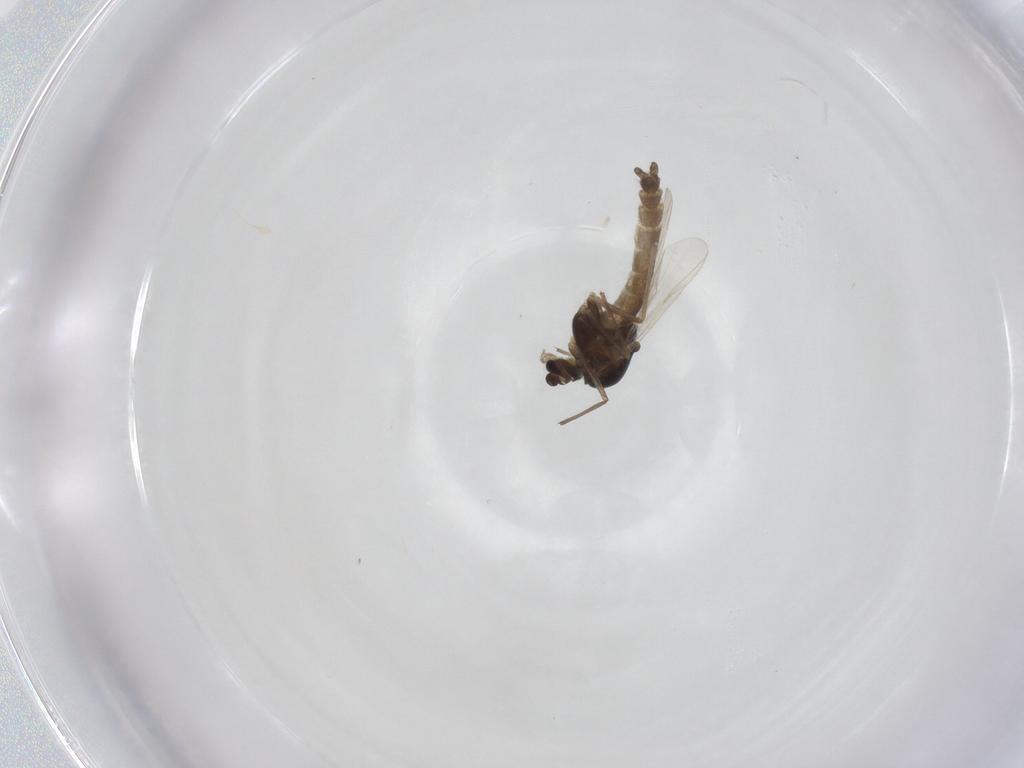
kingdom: Animalia
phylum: Arthropoda
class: Insecta
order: Diptera
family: Chironomidae
